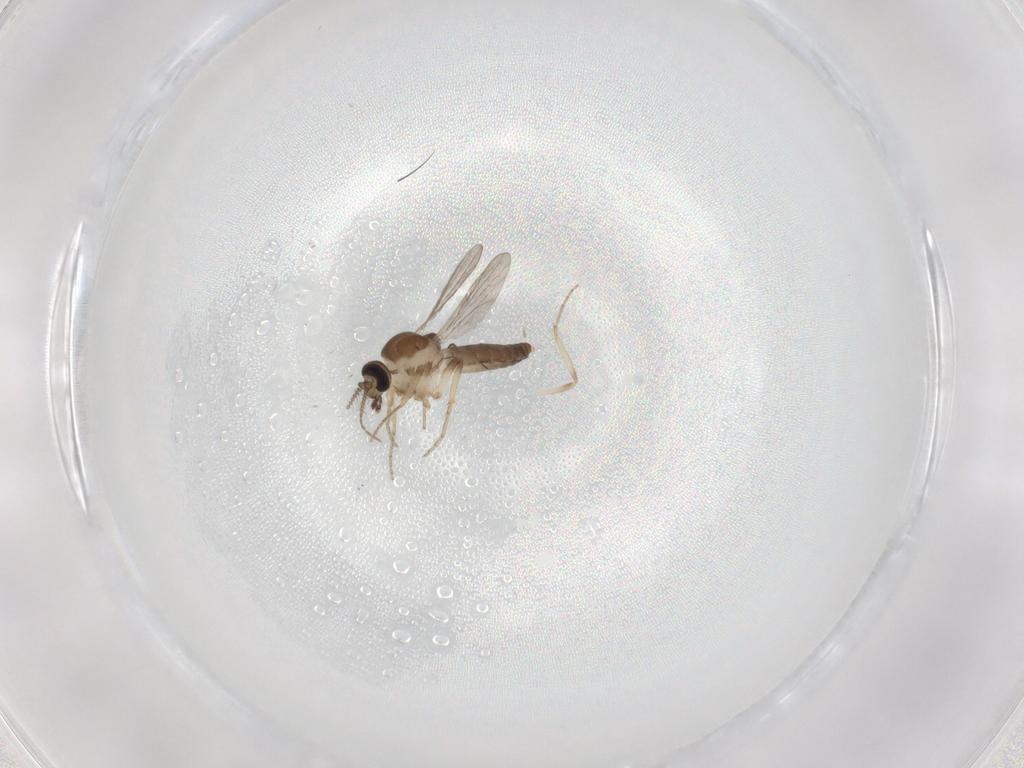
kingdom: Animalia
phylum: Arthropoda
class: Insecta
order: Diptera
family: Ceratopogonidae
